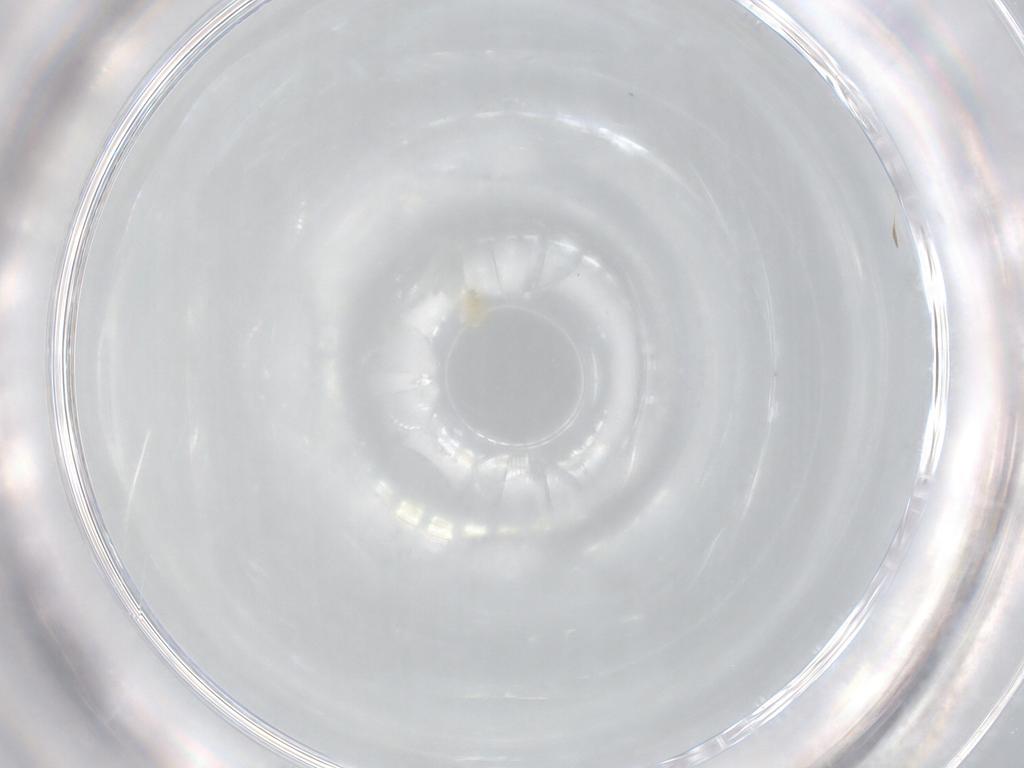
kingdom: Animalia
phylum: Arthropoda
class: Arachnida
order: Trombidiformes
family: Eupodidae
